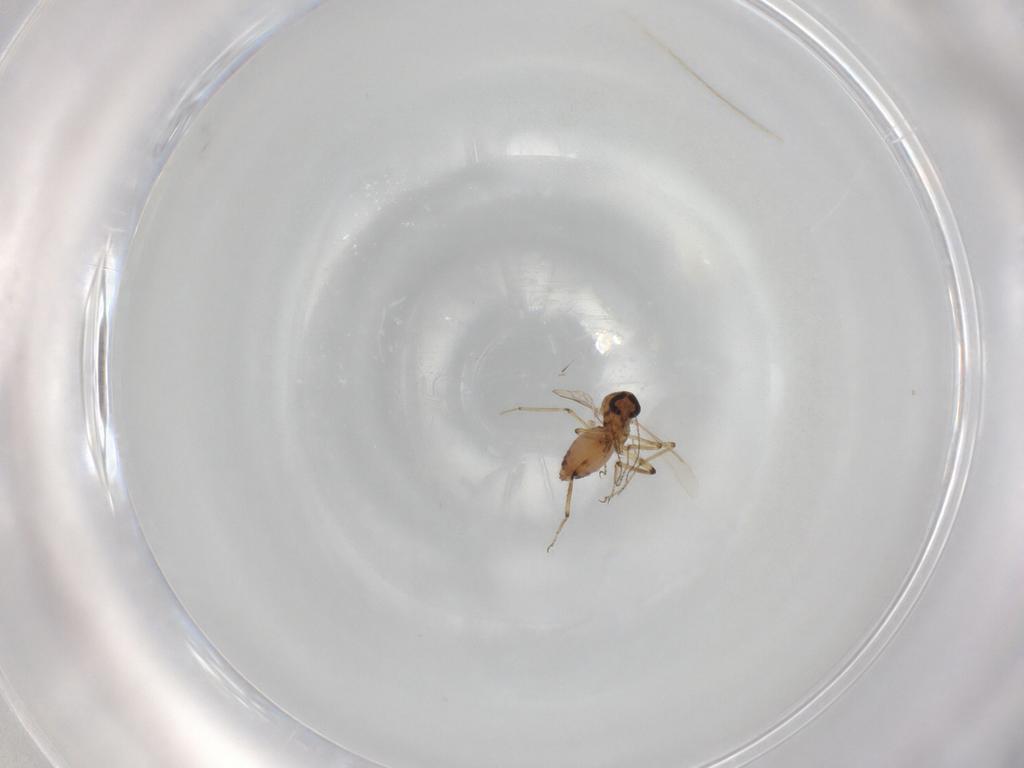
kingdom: Animalia
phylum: Arthropoda
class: Insecta
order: Diptera
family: Ceratopogonidae
